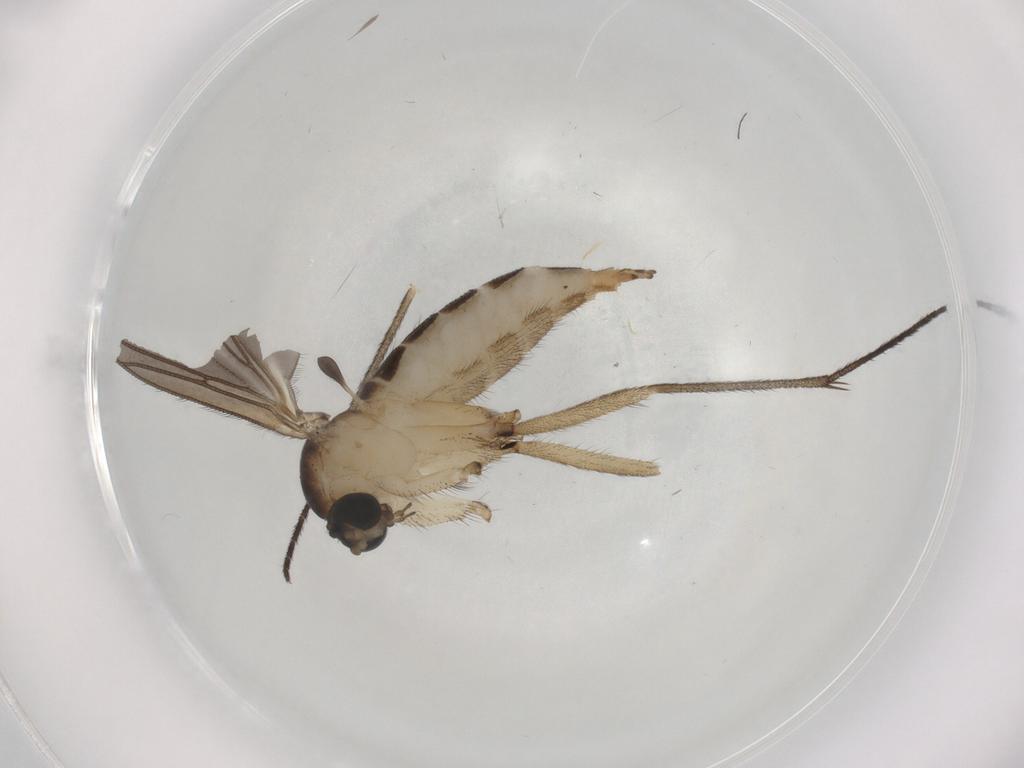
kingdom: Animalia
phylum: Arthropoda
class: Insecta
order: Diptera
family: Sciaridae
